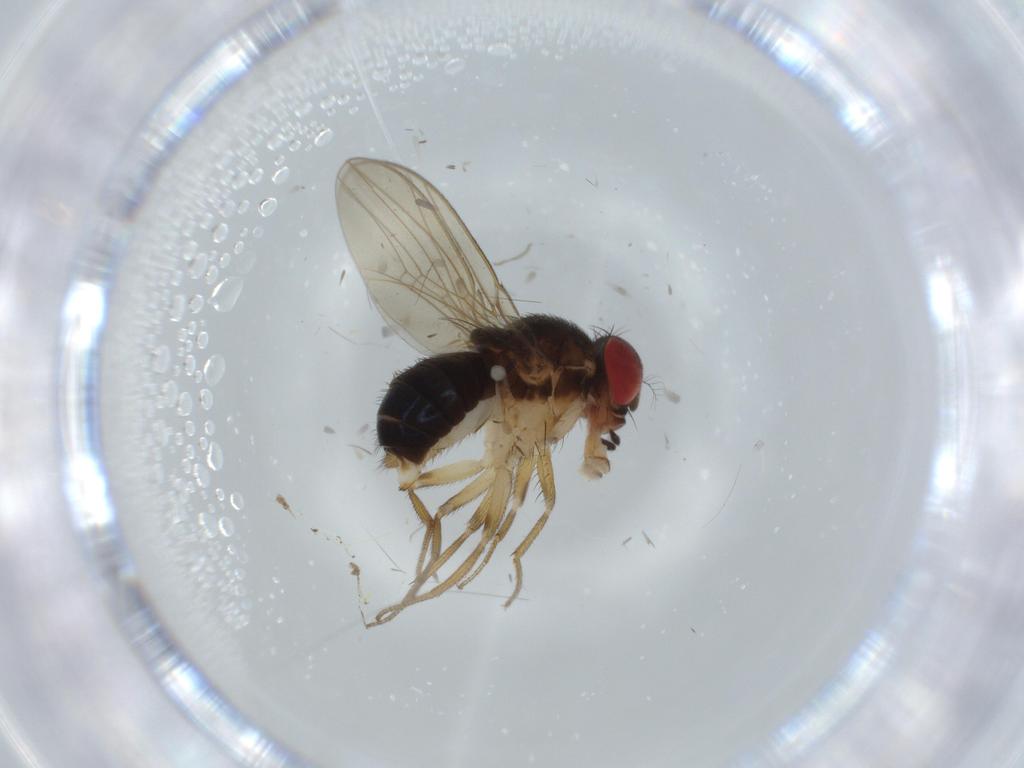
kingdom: Animalia
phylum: Arthropoda
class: Insecta
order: Diptera
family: Drosophilidae
